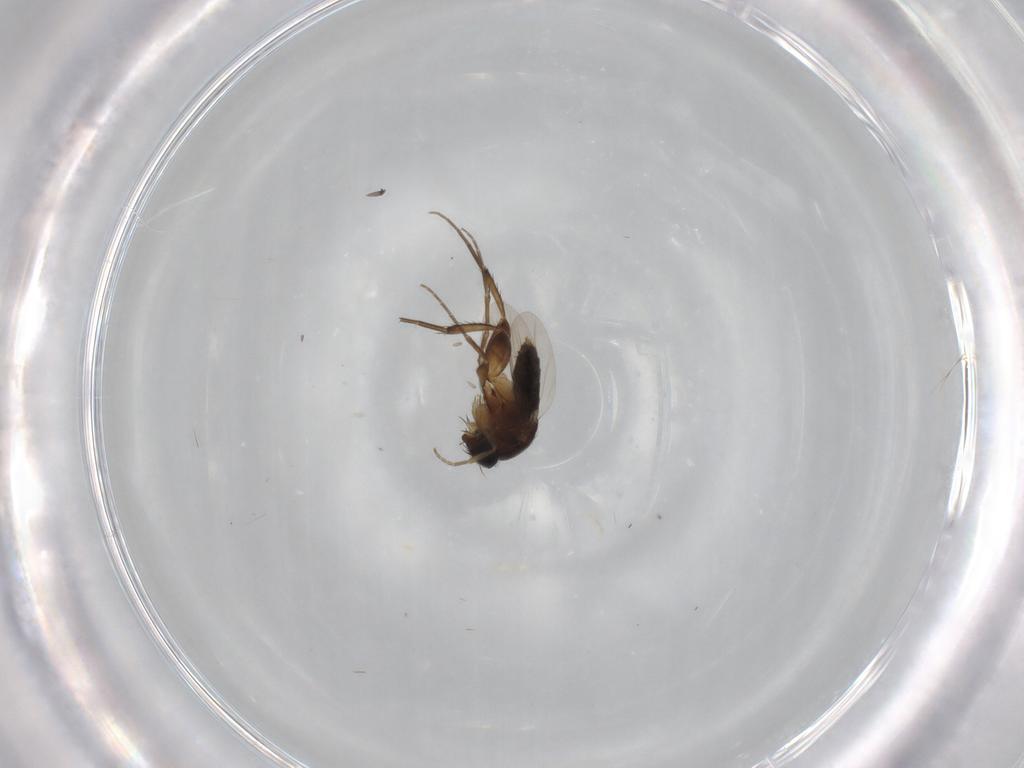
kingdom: Animalia
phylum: Arthropoda
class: Insecta
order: Diptera
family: Phoridae
